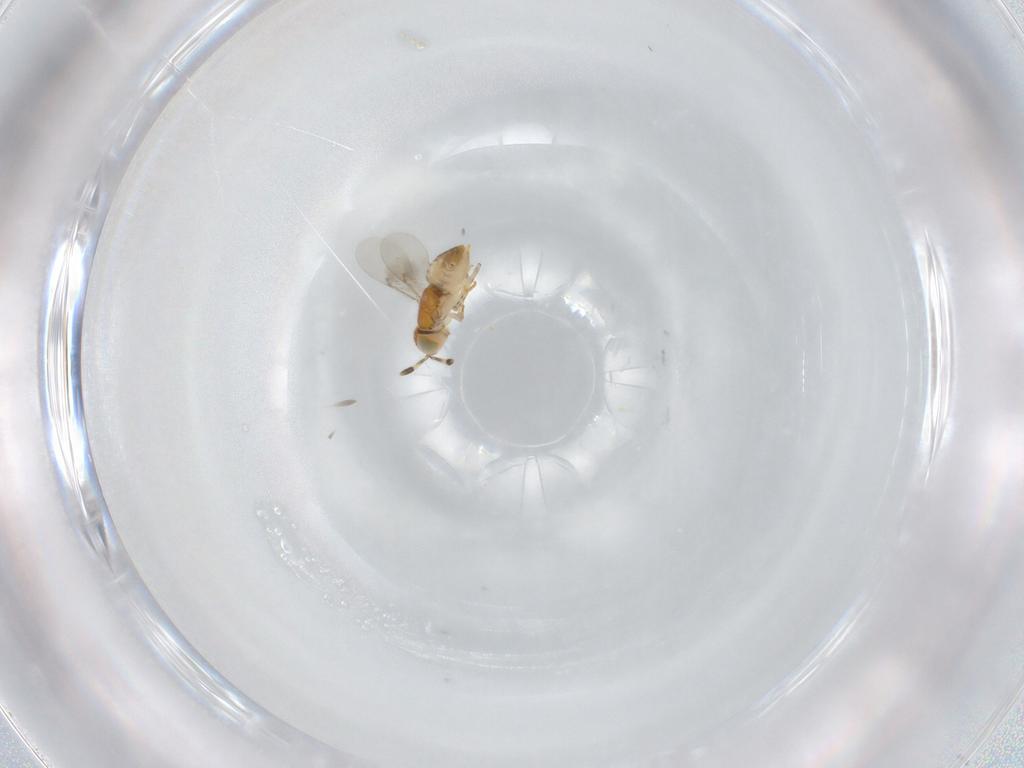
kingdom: Animalia
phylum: Arthropoda
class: Insecta
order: Hymenoptera
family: Encyrtidae
